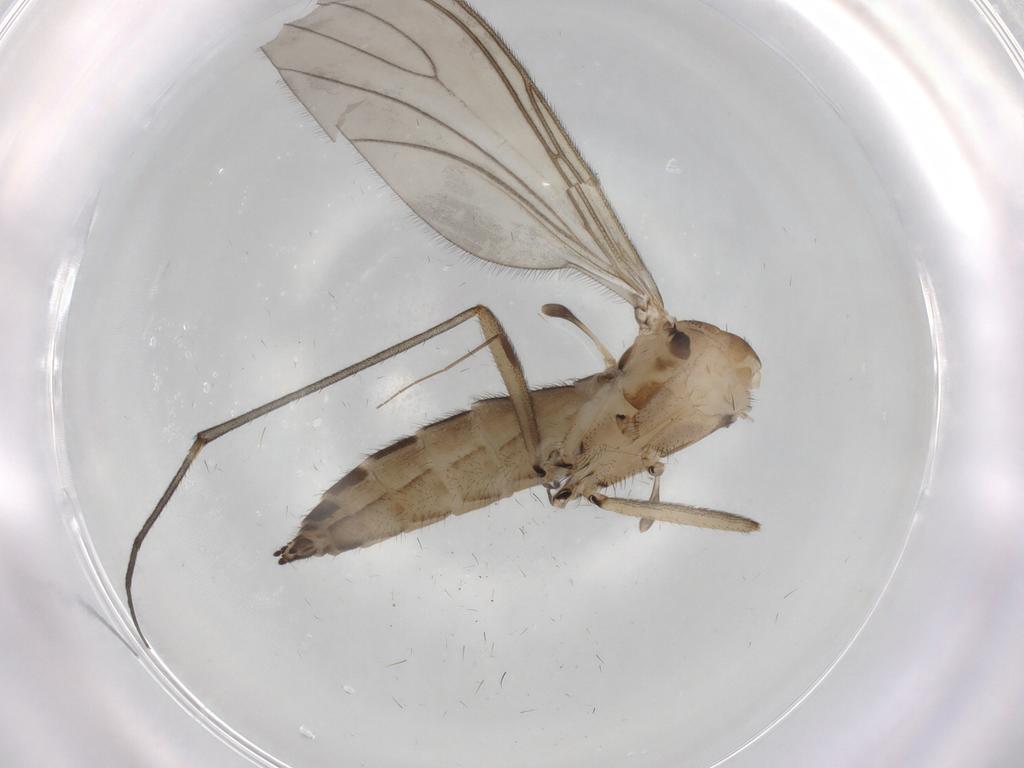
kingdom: Animalia
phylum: Arthropoda
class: Insecta
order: Diptera
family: Sciaridae
